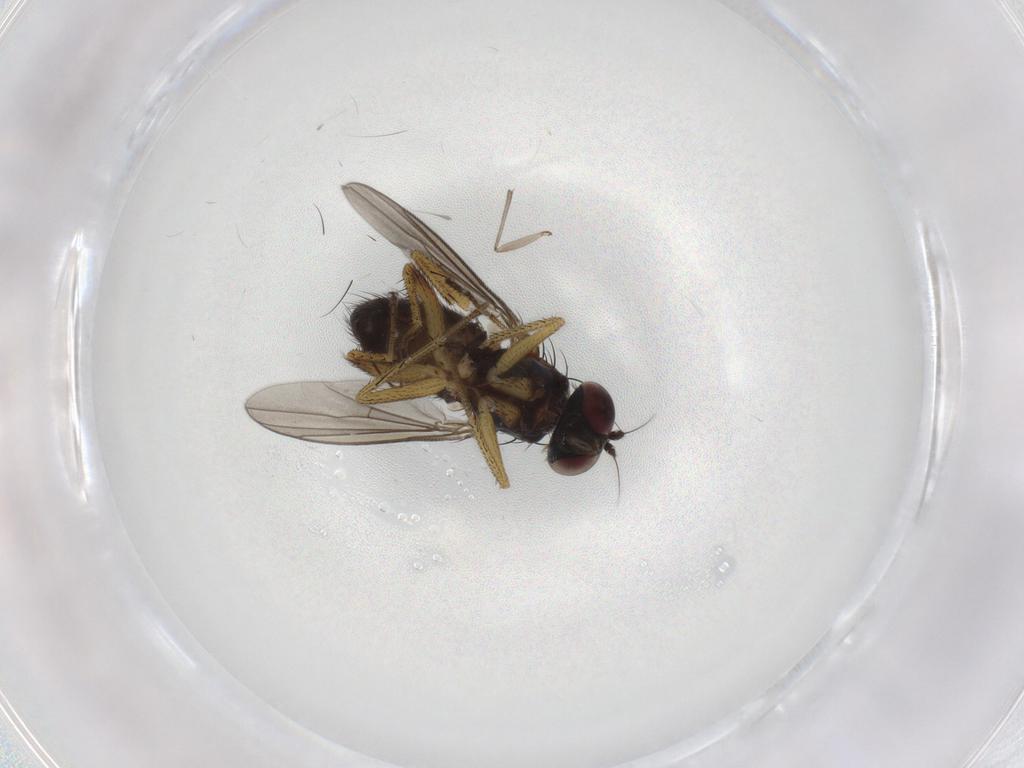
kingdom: Animalia
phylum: Arthropoda
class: Insecta
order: Diptera
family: Dolichopodidae
